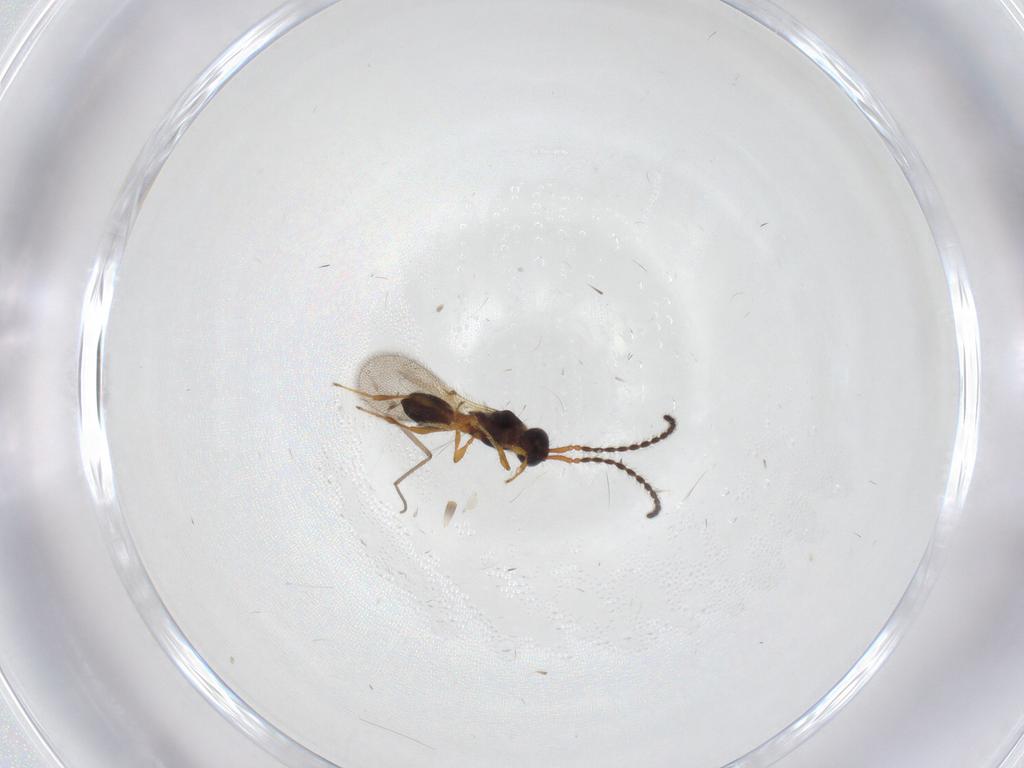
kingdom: Animalia
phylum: Arthropoda
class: Insecta
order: Hymenoptera
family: Diapriidae
